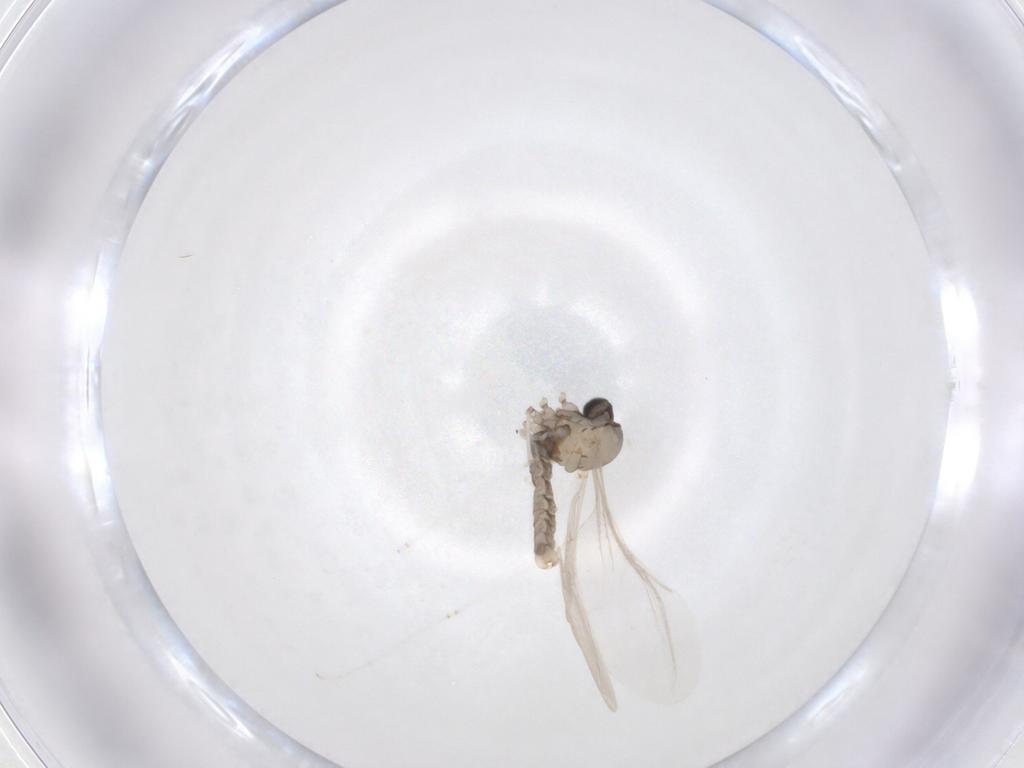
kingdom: Animalia
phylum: Arthropoda
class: Insecta
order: Diptera
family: Cecidomyiidae
